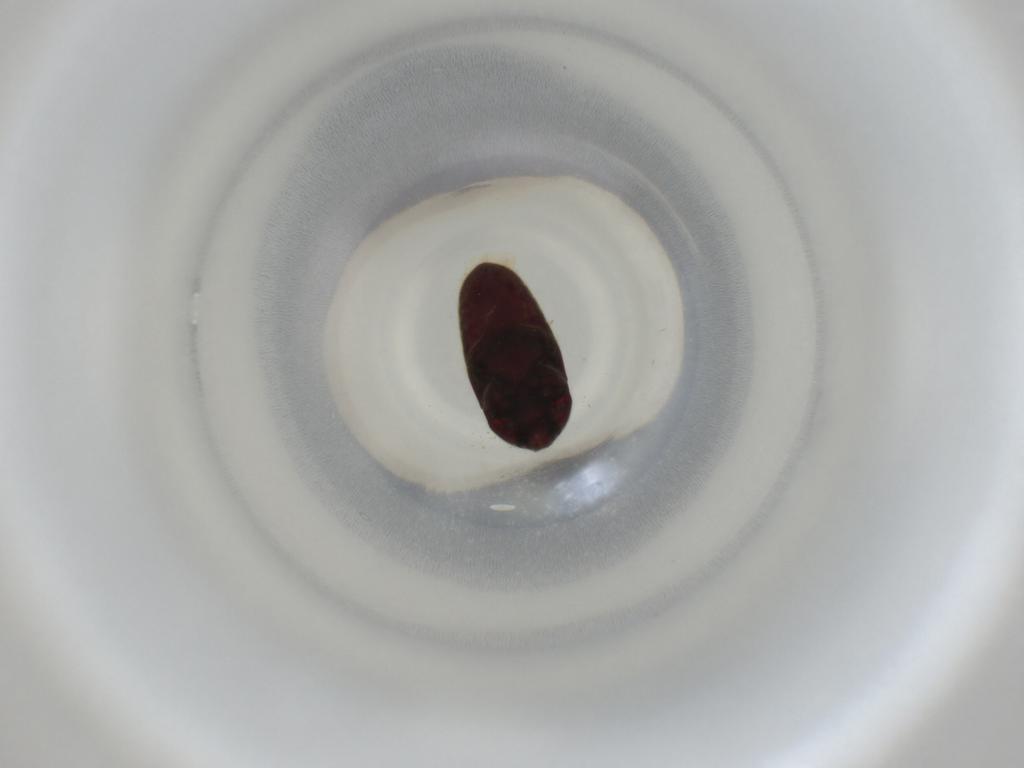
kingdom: Animalia
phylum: Arthropoda
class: Insecta
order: Coleoptera
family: Throscidae
